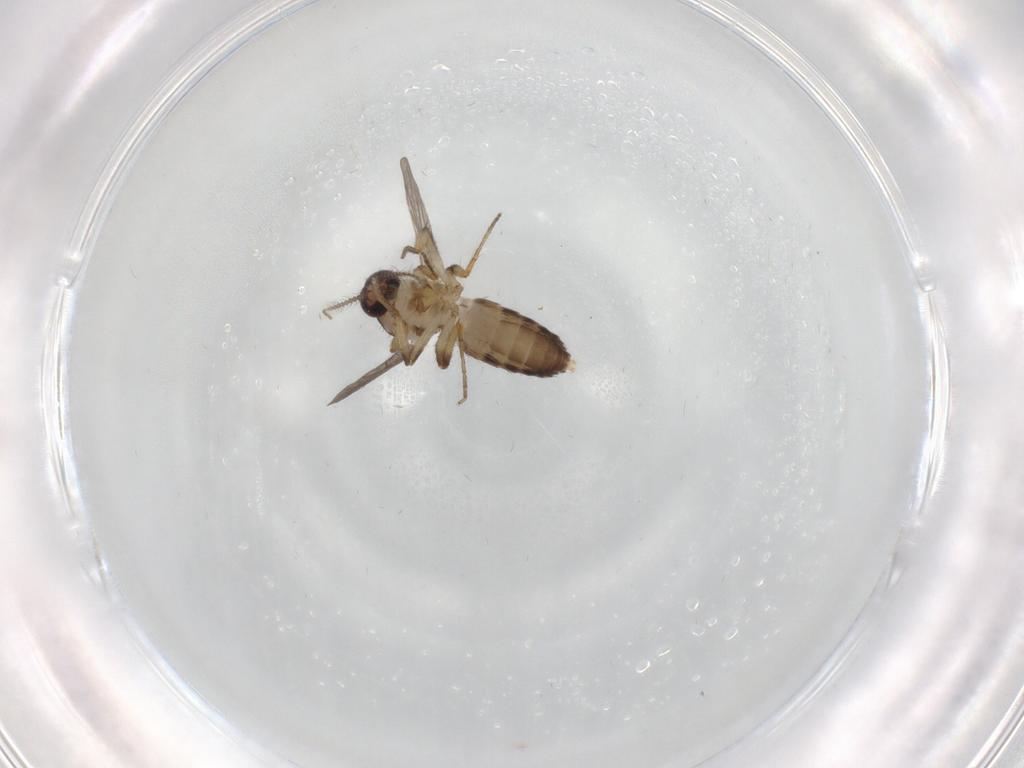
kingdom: Animalia
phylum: Arthropoda
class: Insecta
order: Diptera
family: Ceratopogonidae
